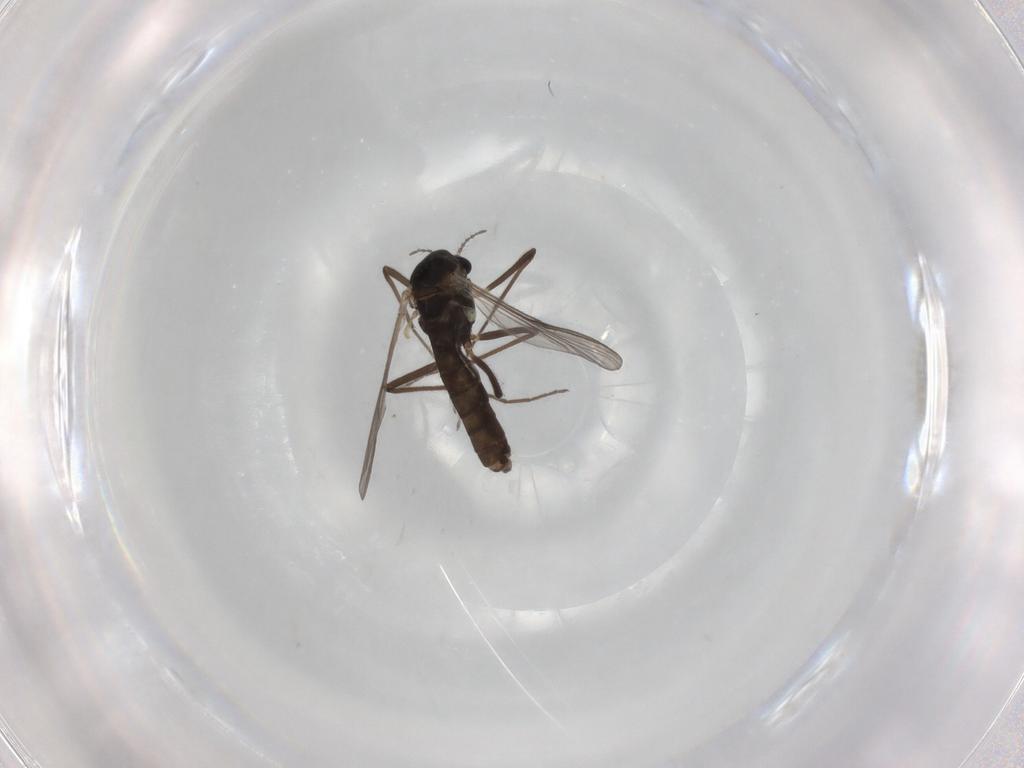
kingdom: Animalia
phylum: Arthropoda
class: Insecta
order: Diptera
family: Chironomidae
